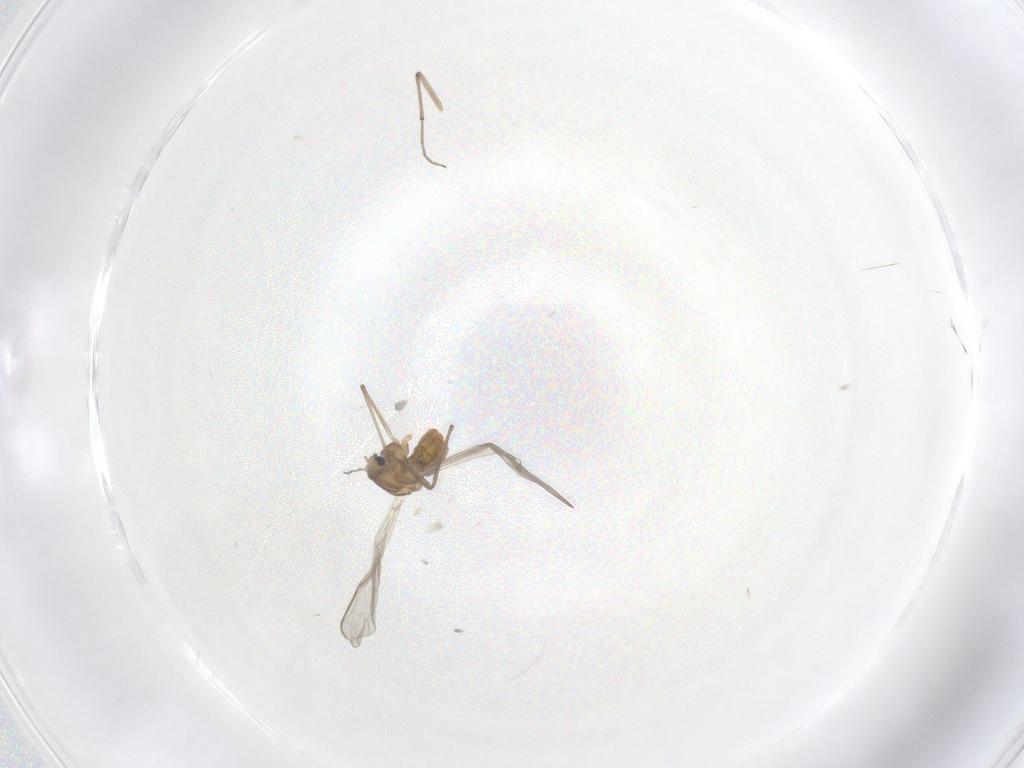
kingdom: Animalia
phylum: Arthropoda
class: Insecta
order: Diptera
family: Chironomidae
